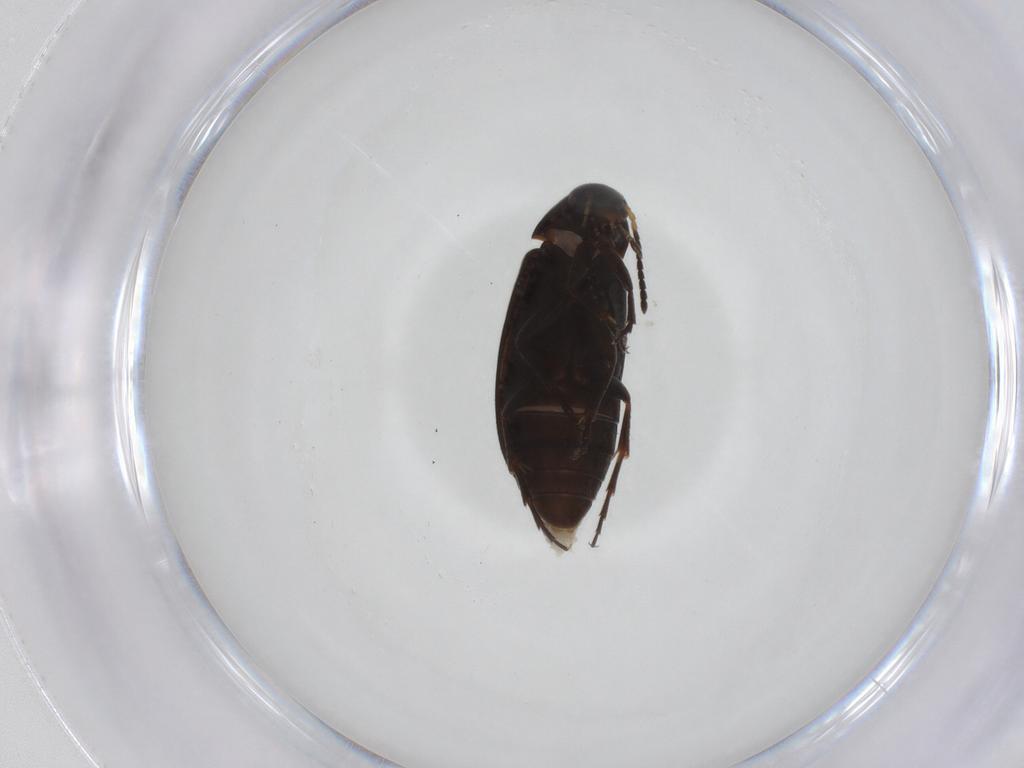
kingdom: Animalia
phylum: Arthropoda
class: Insecta
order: Coleoptera
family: Scraptiidae
